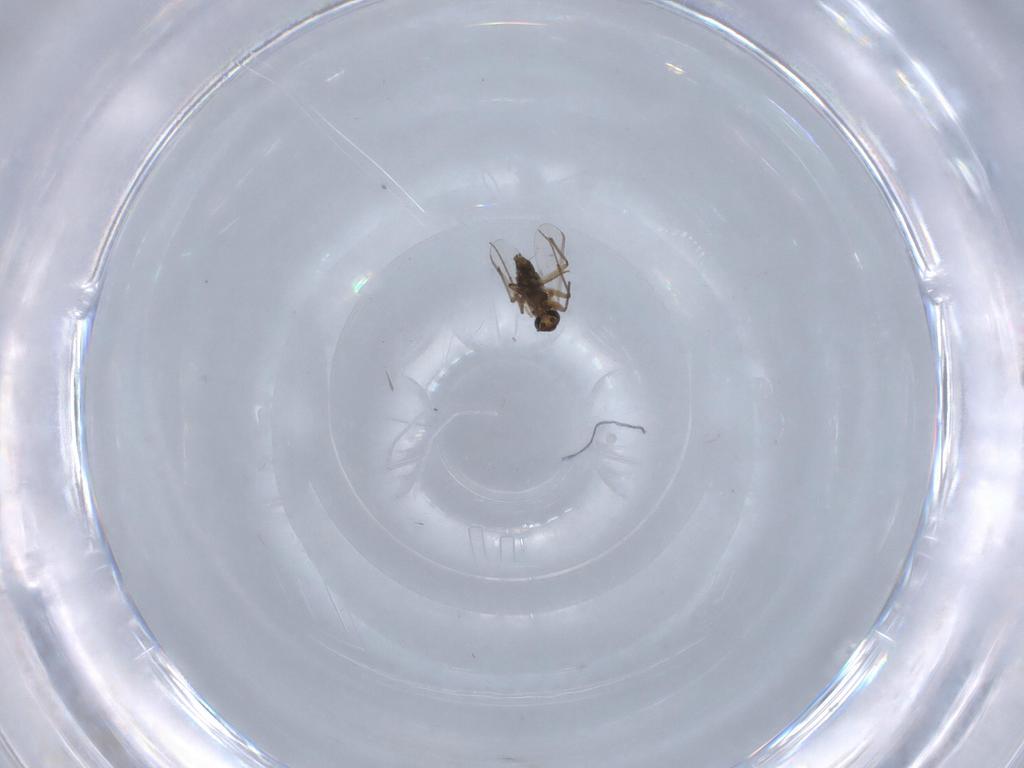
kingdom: Animalia
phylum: Arthropoda
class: Insecta
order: Diptera
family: Chironomidae
